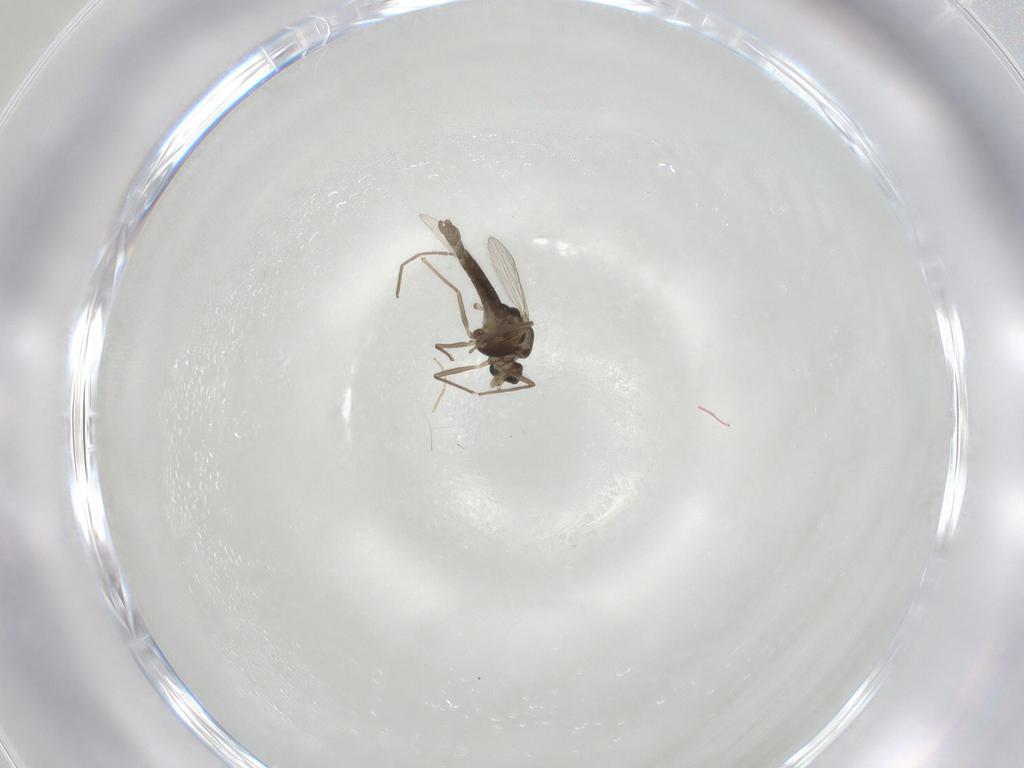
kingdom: Animalia
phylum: Arthropoda
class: Insecta
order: Diptera
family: Chironomidae
